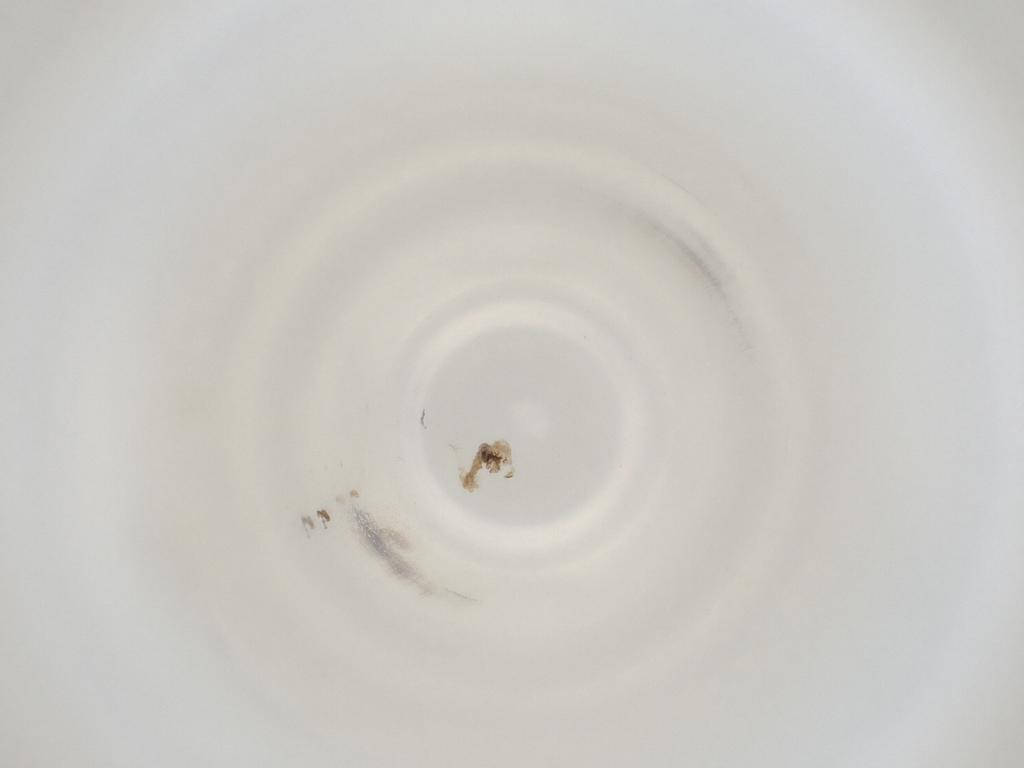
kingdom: Animalia
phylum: Arthropoda
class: Insecta
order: Diptera
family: Cecidomyiidae
